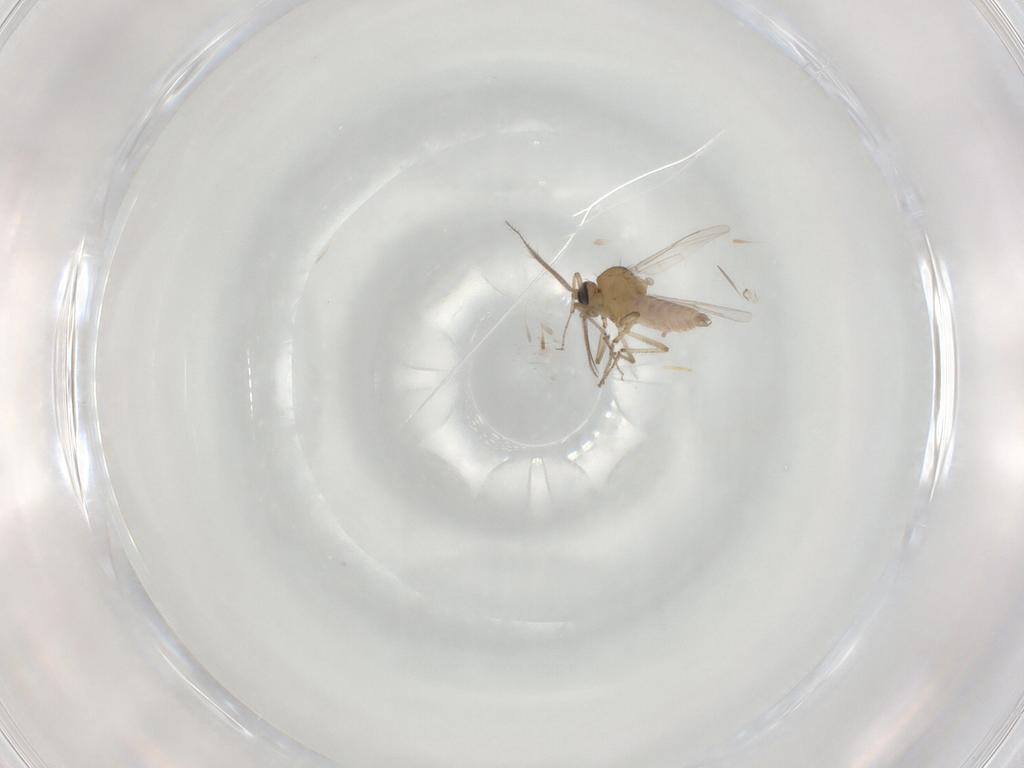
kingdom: Animalia
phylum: Arthropoda
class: Insecta
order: Diptera
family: Ceratopogonidae
